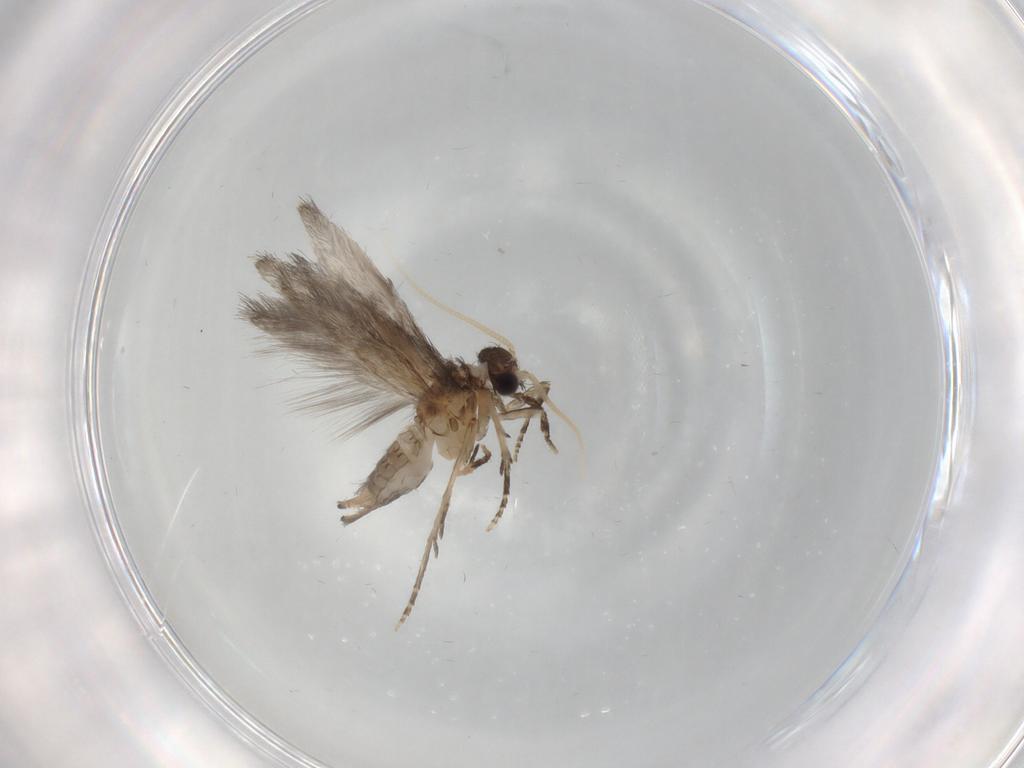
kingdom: Animalia
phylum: Arthropoda
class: Insecta
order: Trichoptera
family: Hydroptilidae
